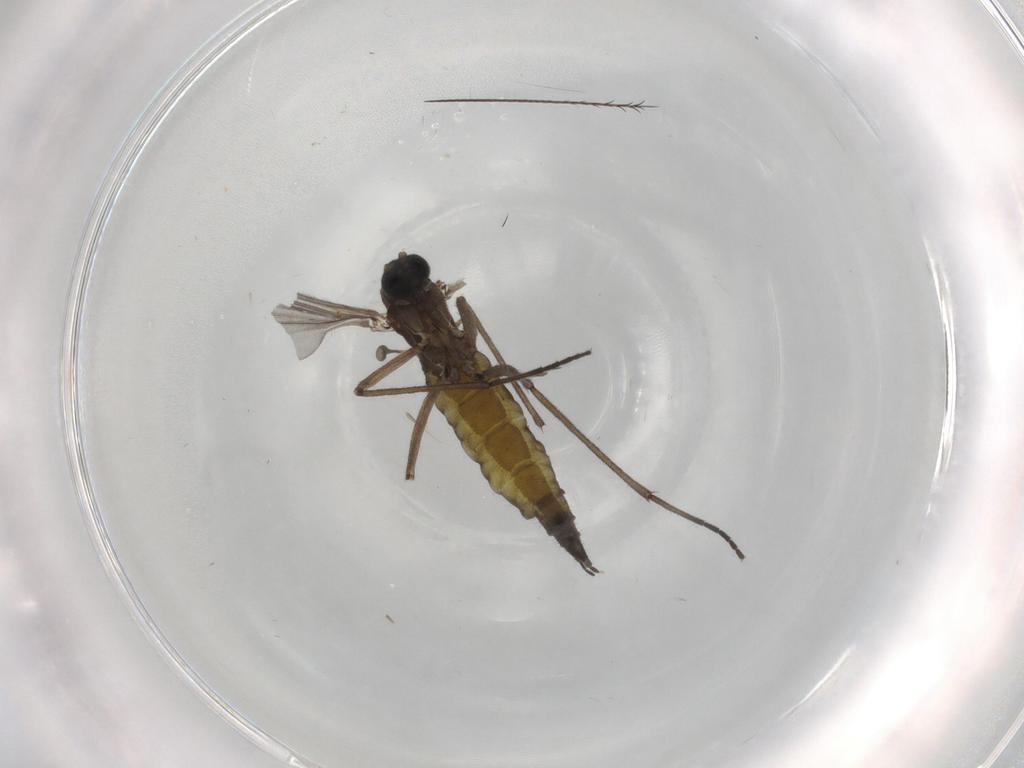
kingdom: Animalia
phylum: Arthropoda
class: Insecta
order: Diptera
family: Sciaridae
